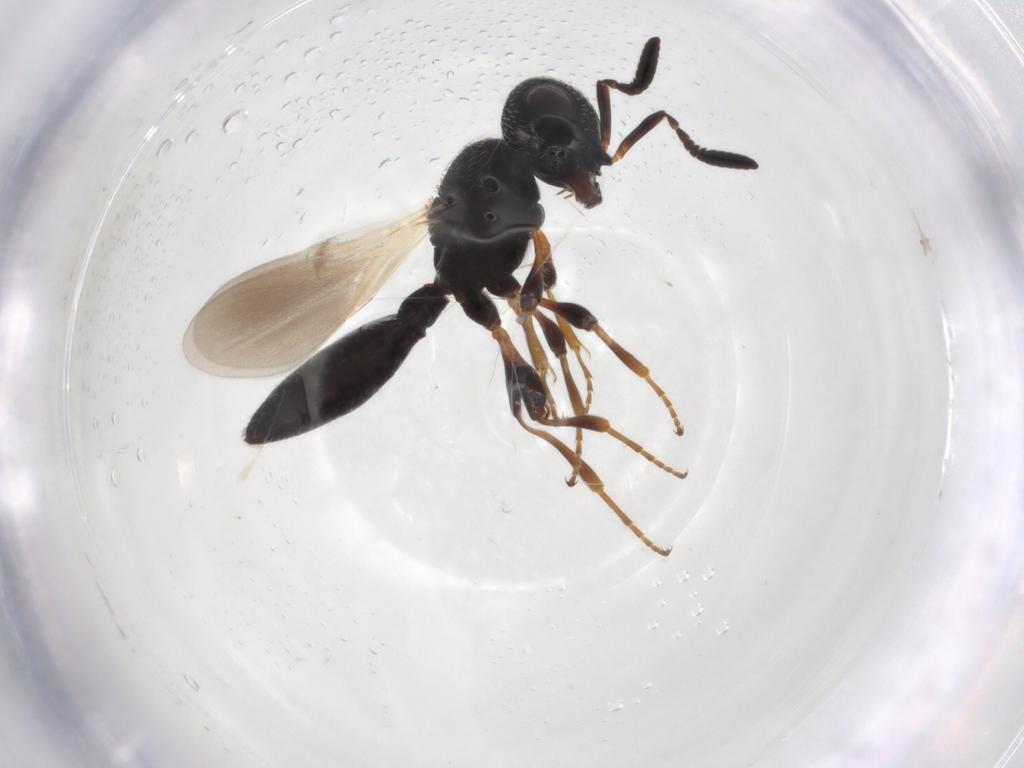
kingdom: Animalia
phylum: Arthropoda
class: Insecta
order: Hymenoptera
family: Scelionidae
